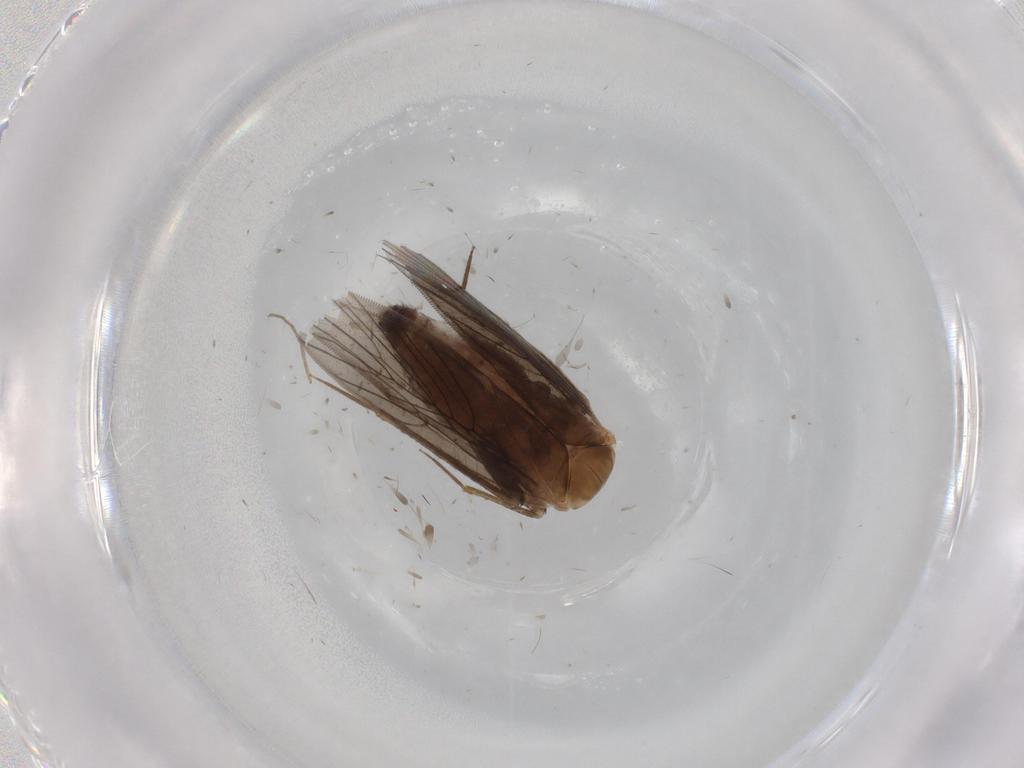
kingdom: Animalia
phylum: Arthropoda
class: Insecta
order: Psocodea
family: Lepidopsocidae
